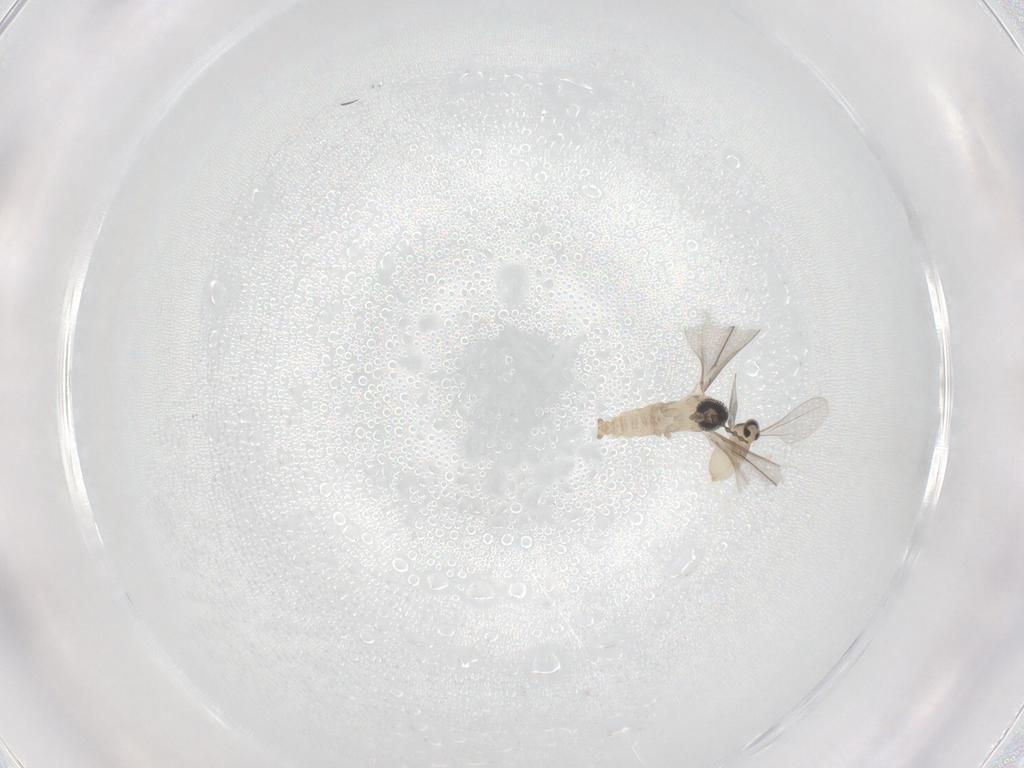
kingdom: Animalia
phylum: Arthropoda
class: Insecta
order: Diptera
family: Cecidomyiidae
